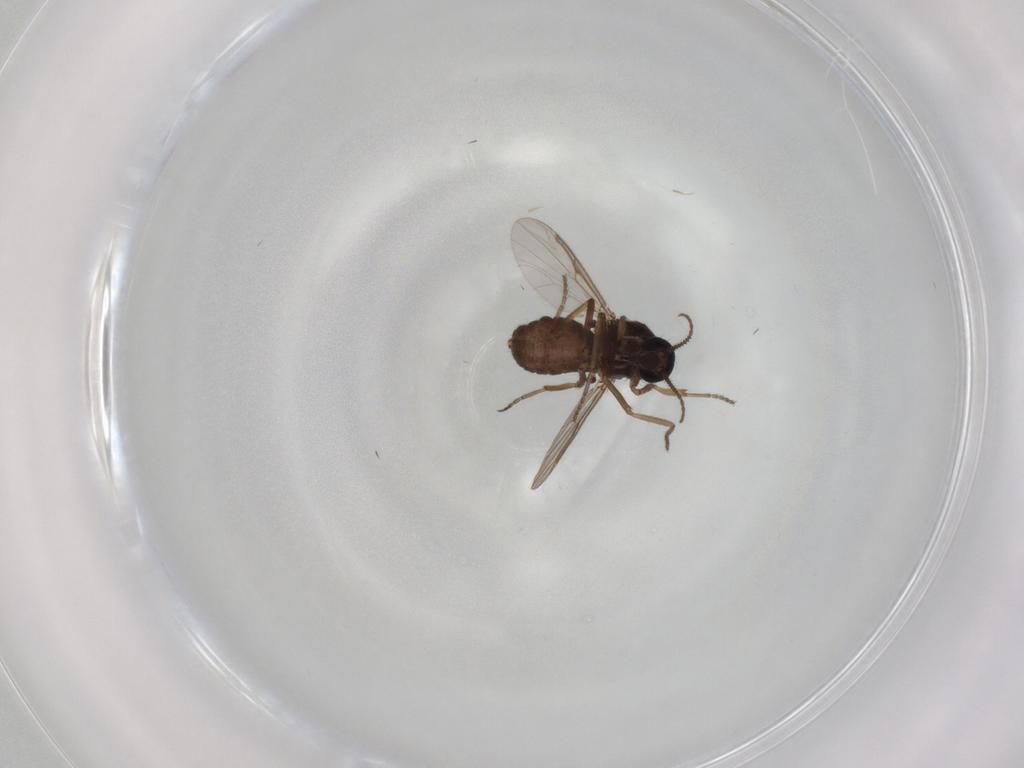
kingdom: Animalia
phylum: Arthropoda
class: Insecta
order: Diptera
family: Ceratopogonidae
